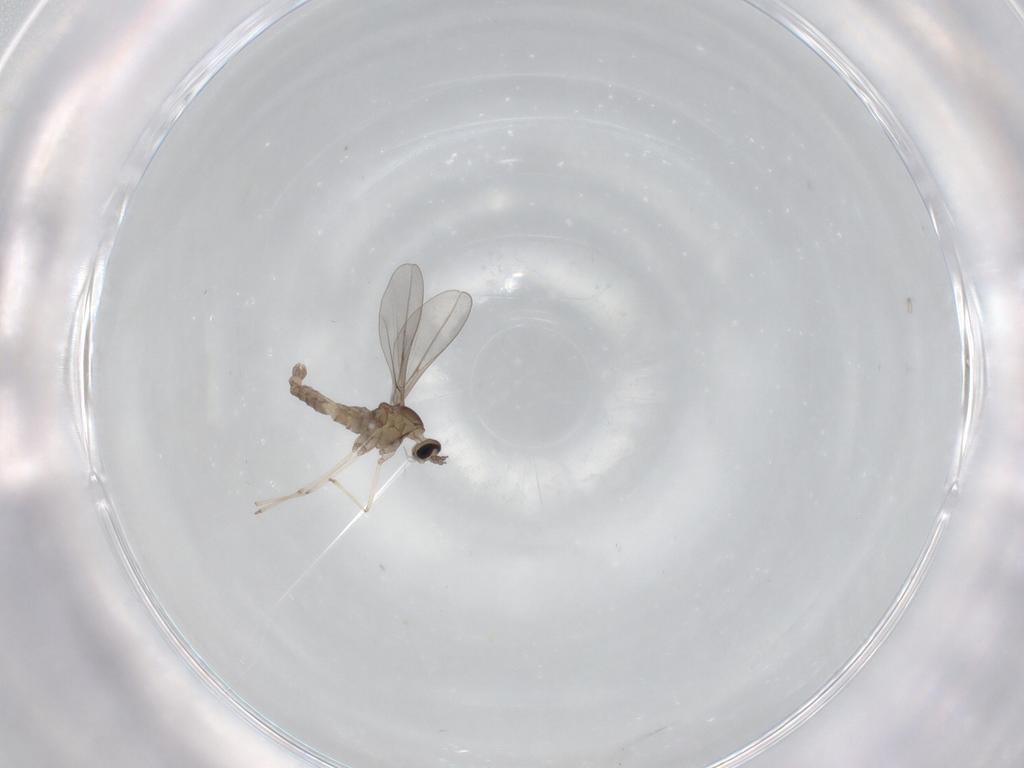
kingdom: Animalia
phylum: Arthropoda
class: Insecta
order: Diptera
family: Cecidomyiidae
